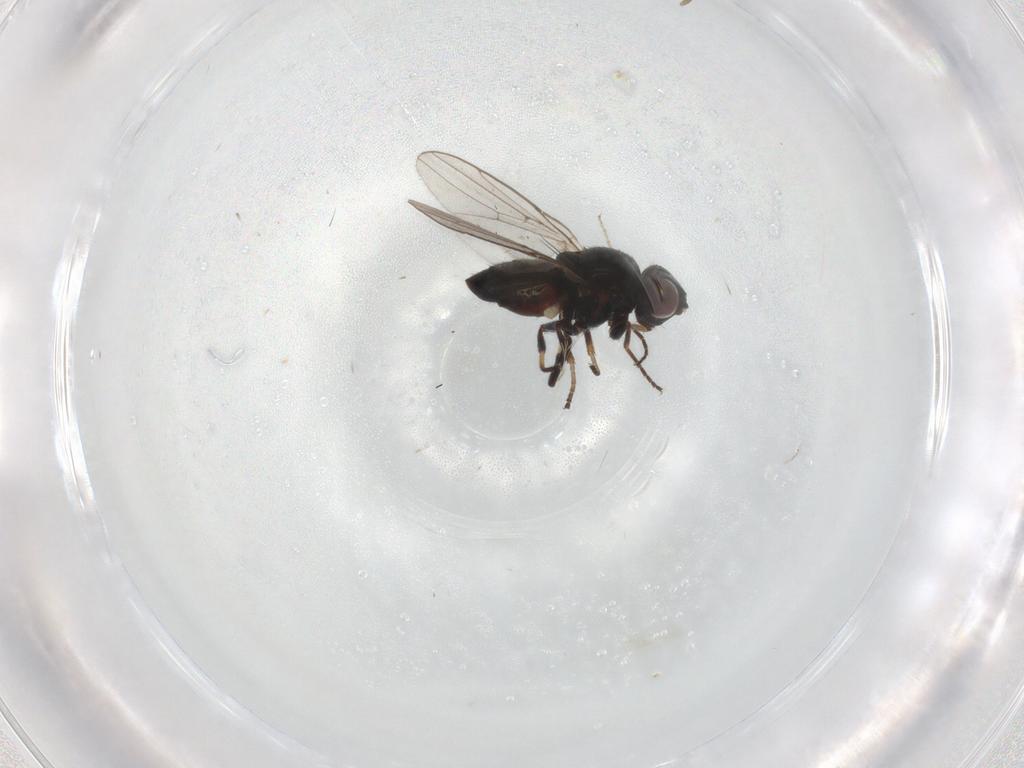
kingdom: Animalia
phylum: Arthropoda
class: Insecta
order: Diptera
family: Chloropidae
